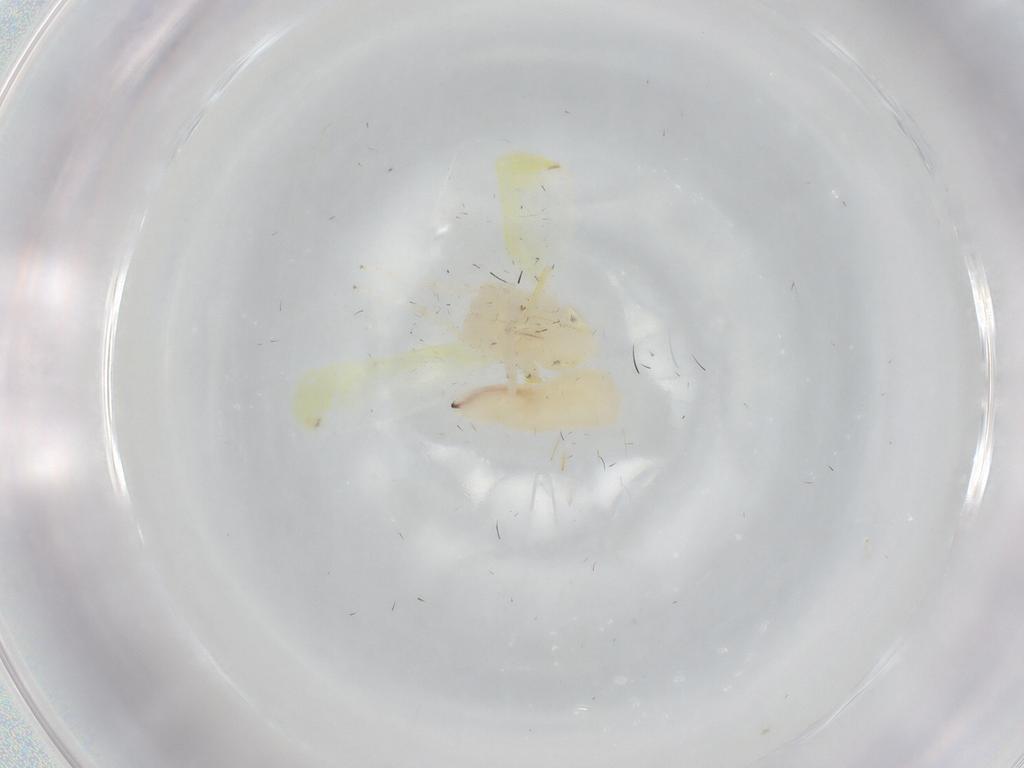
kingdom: Animalia
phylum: Arthropoda
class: Insecta
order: Hemiptera
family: Cicadellidae
